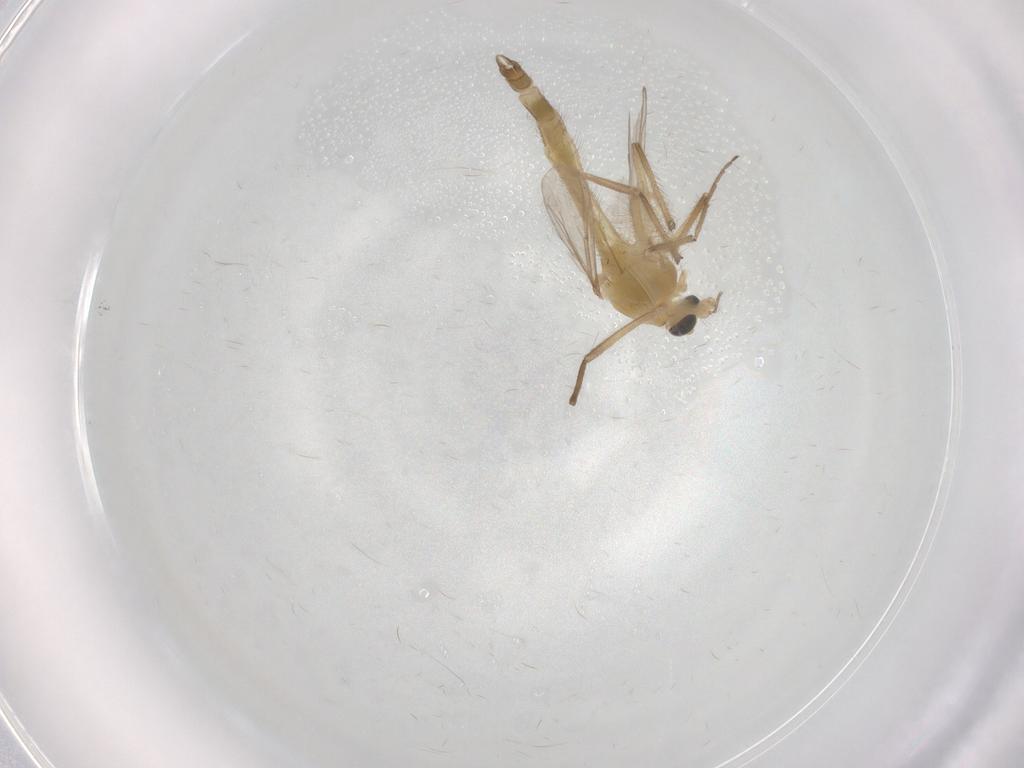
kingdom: Animalia
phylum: Arthropoda
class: Insecta
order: Diptera
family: Chironomidae
